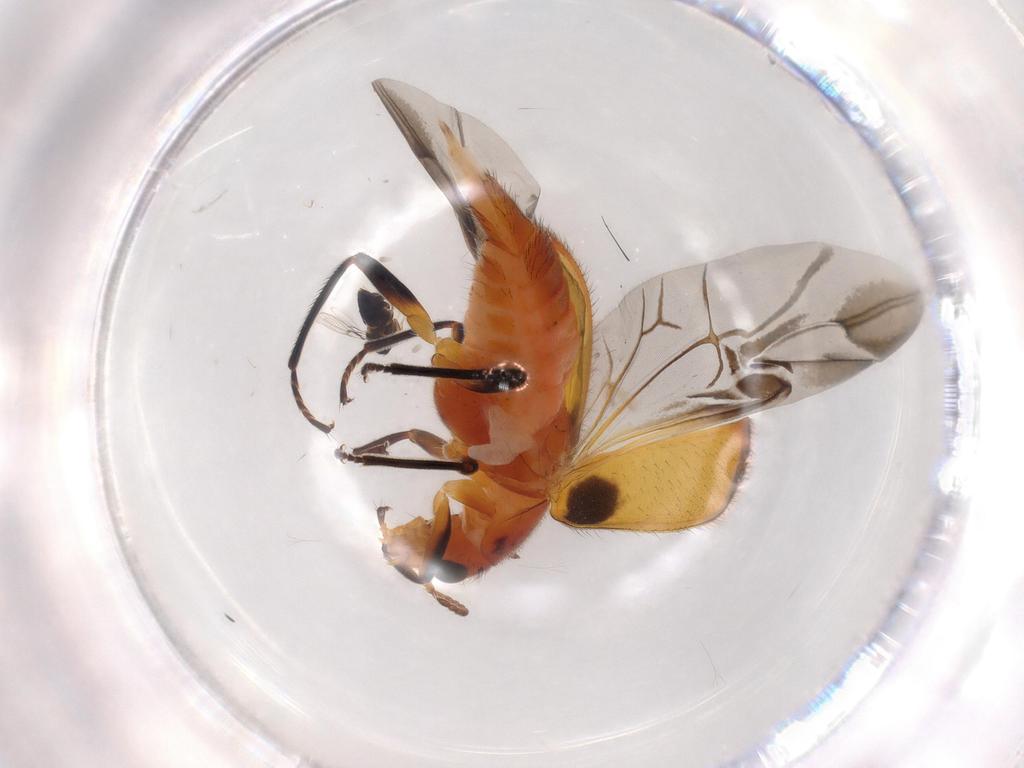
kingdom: Animalia
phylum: Arthropoda
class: Insecta
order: Coleoptera
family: Melyridae
